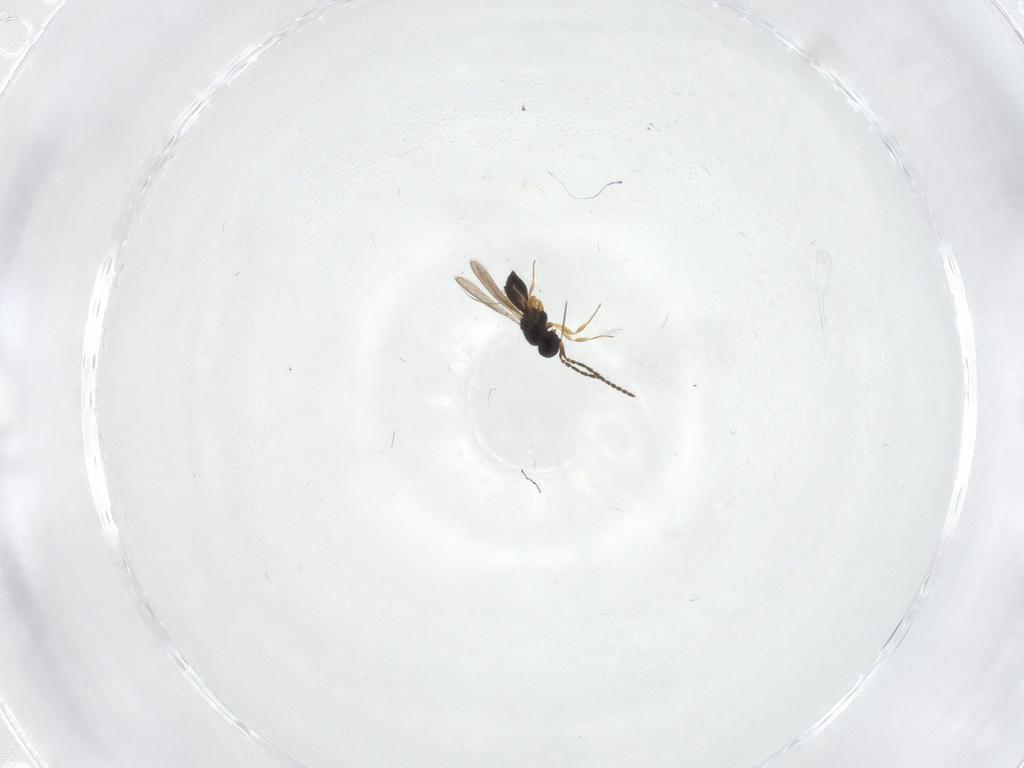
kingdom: Animalia
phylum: Arthropoda
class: Insecta
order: Hymenoptera
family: Scelionidae
